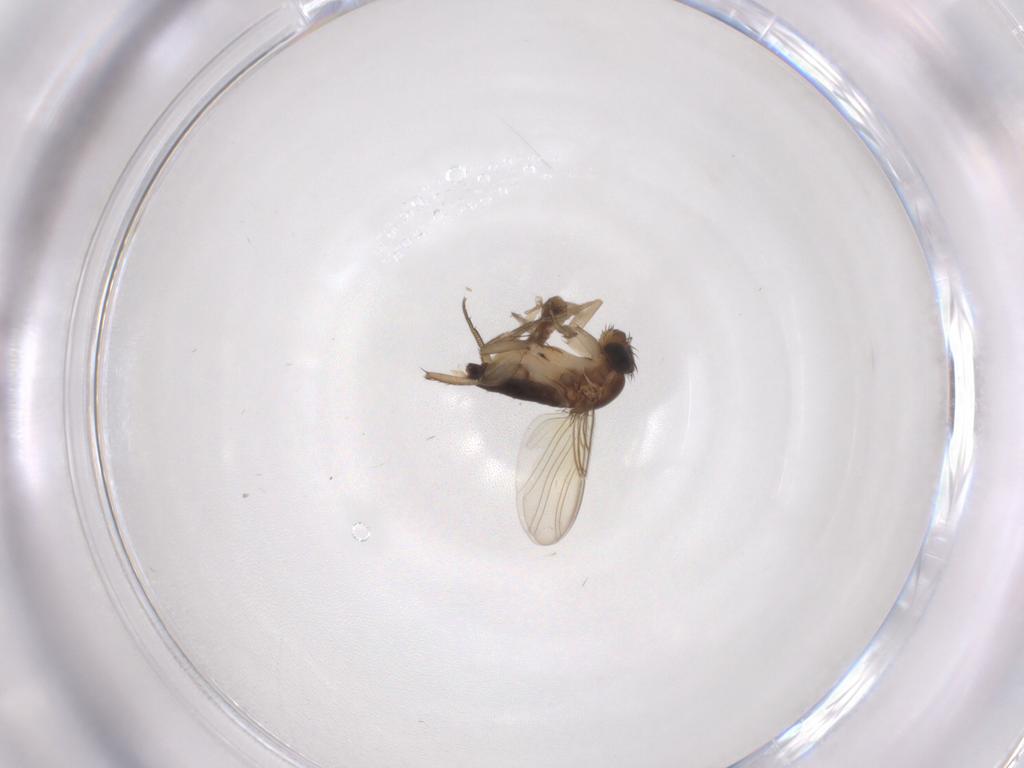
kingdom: Animalia
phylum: Arthropoda
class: Insecta
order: Diptera
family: Phoridae
